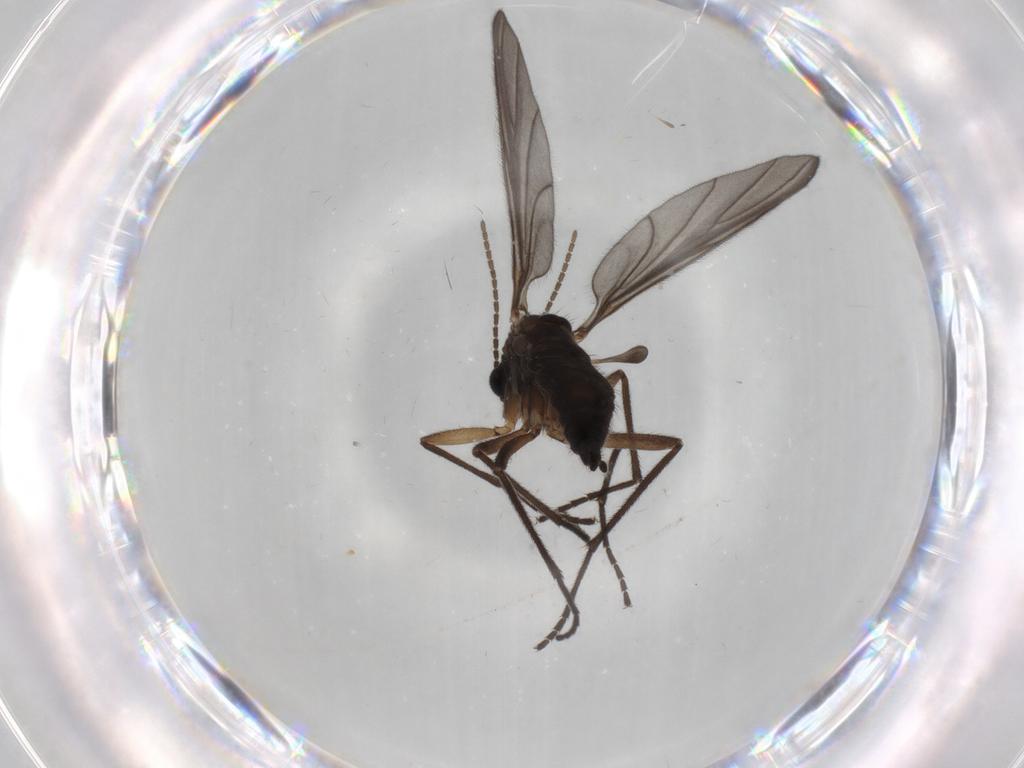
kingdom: Animalia
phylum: Arthropoda
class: Insecta
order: Diptera
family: Sciaridae
